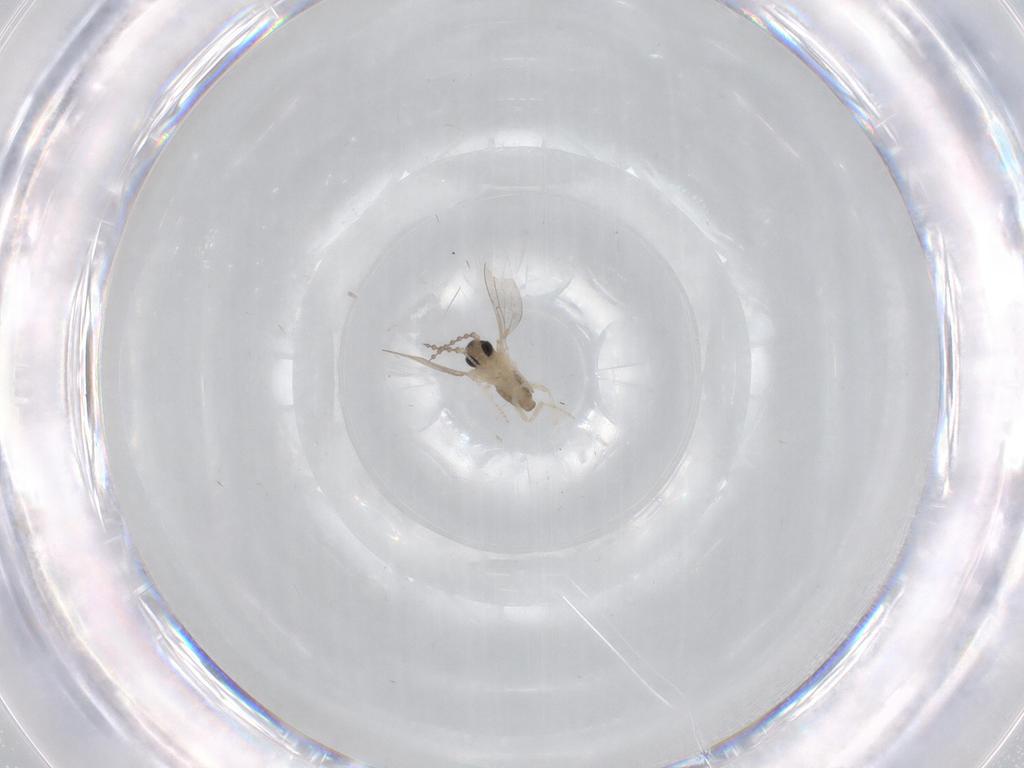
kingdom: Animalia
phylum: Arthropoda
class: Insecta
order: Diptera
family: Cecidomyiidae
